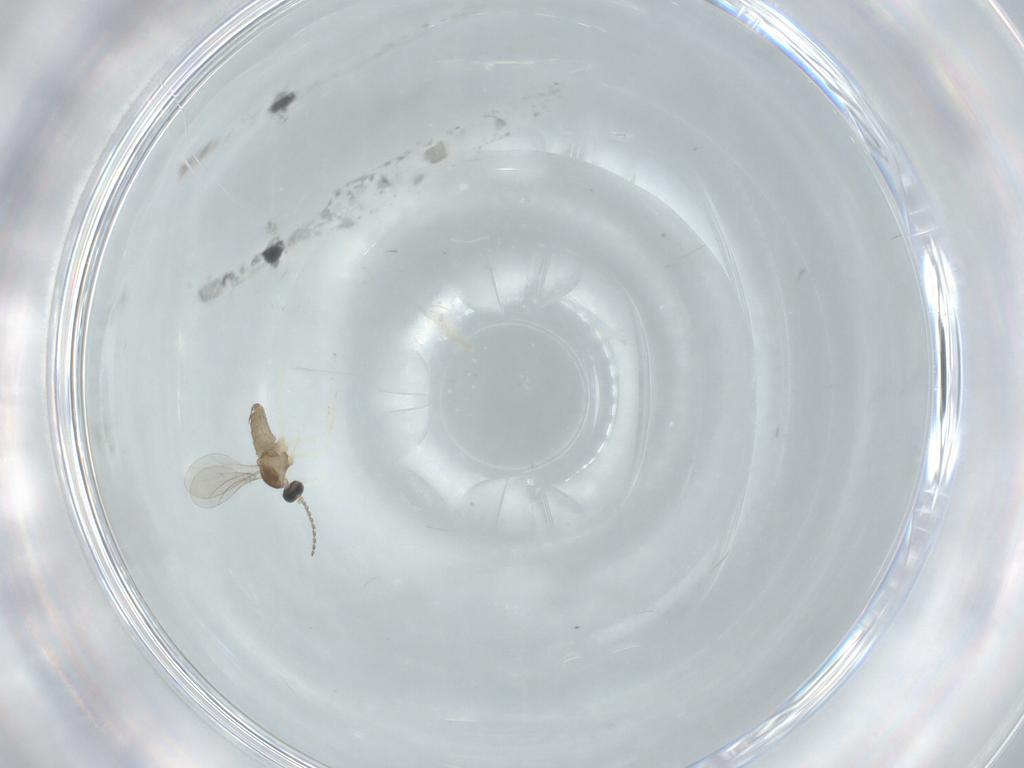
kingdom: Animalia
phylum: Arthropoda
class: Insecta
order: Diptera
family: Cecidomyiidae
